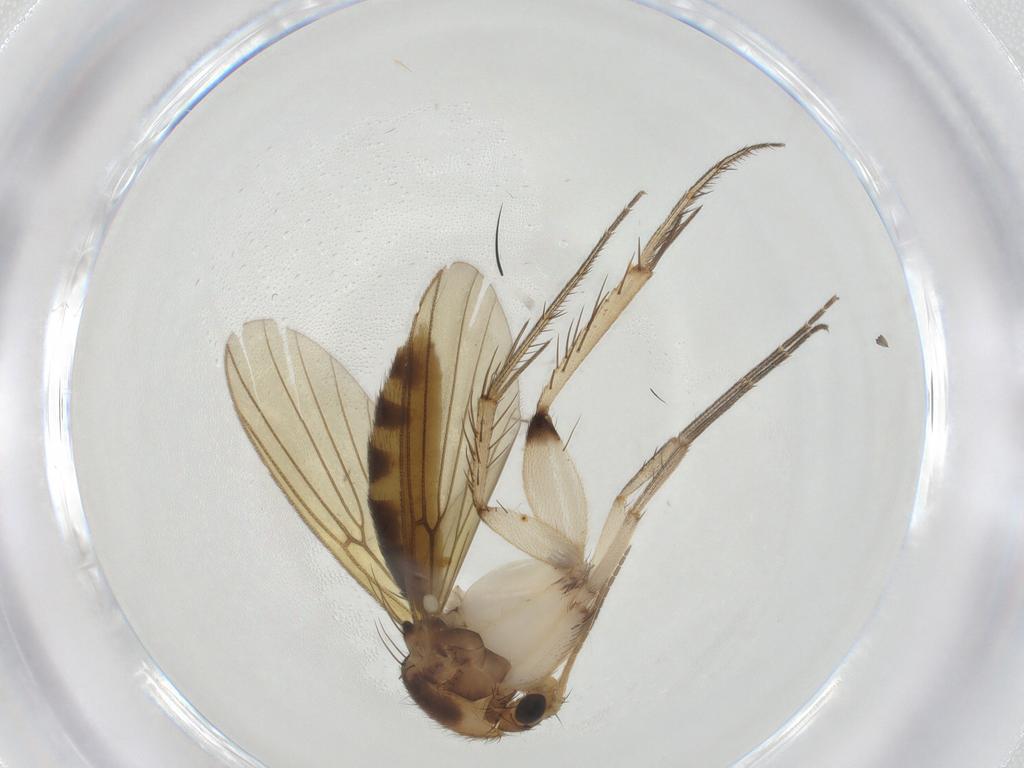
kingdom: Animalia
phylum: Arthropoda
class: Insecta
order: Diptera
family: Mycetophilidae
